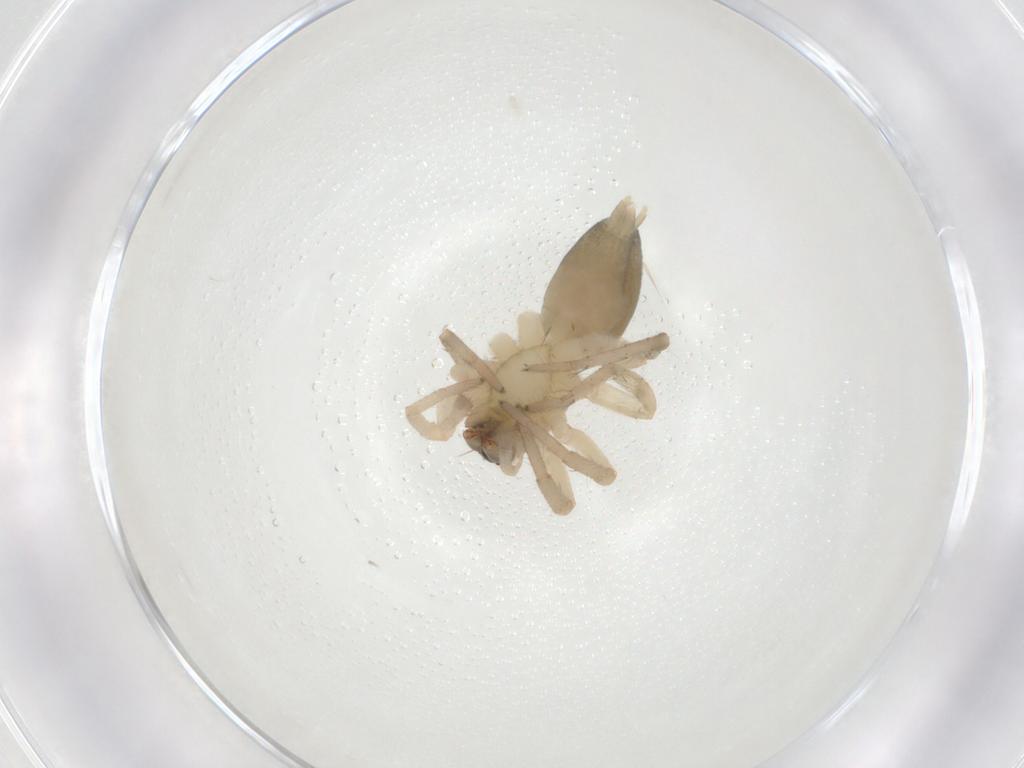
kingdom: Animalia
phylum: Arthropoda
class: Arachnida
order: Araneae
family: Amaurobiidae
